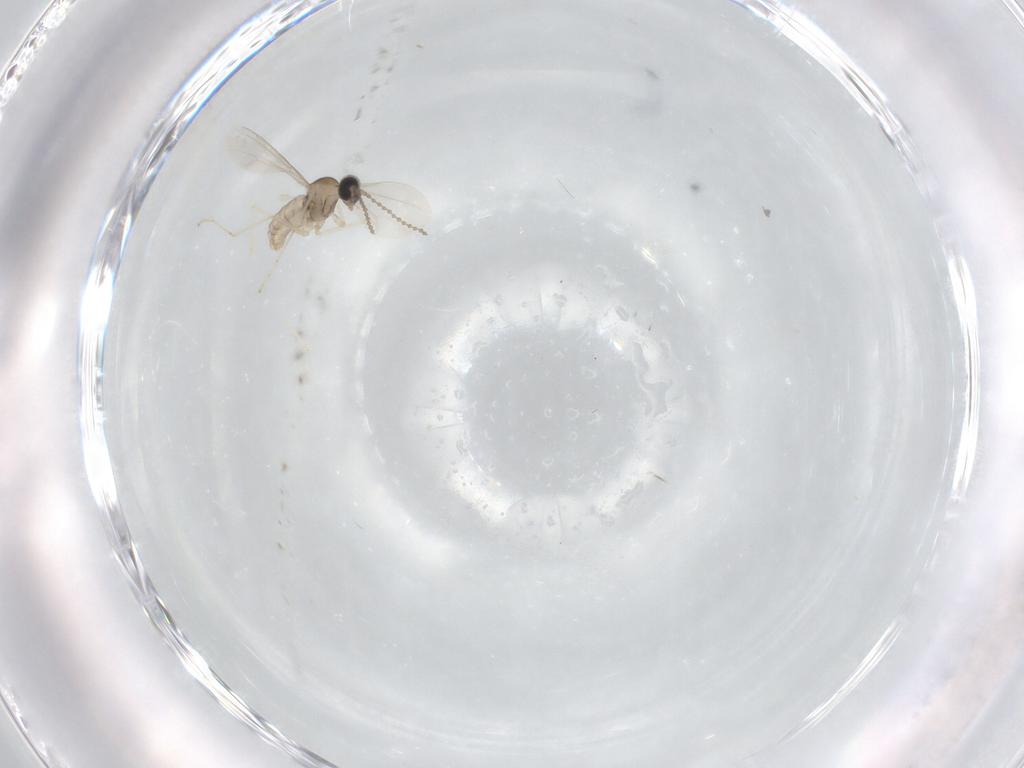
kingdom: Animalia
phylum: Arthropoda
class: Insecta
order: Diptera
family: Cecidomyiidae
